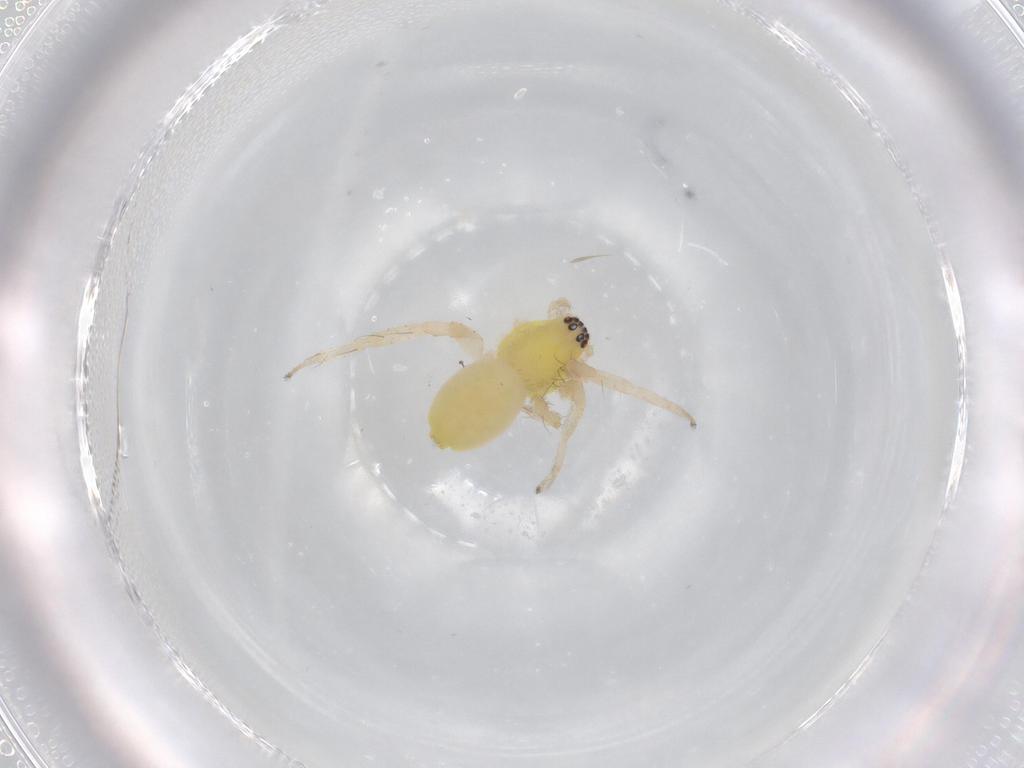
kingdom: Animalia
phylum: Arthropoda
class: Arachnida
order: Araneae
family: Anyphaenidae
